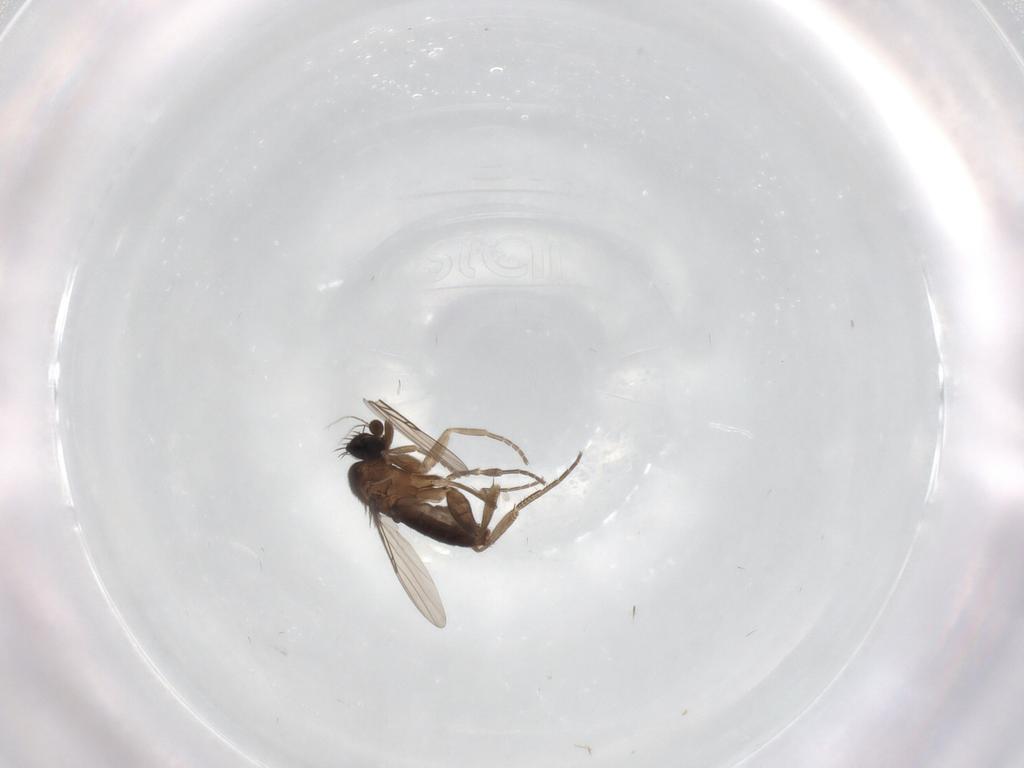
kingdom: Animalia
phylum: Arthropoda
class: Insecta
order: Diptera
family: Phoridae
